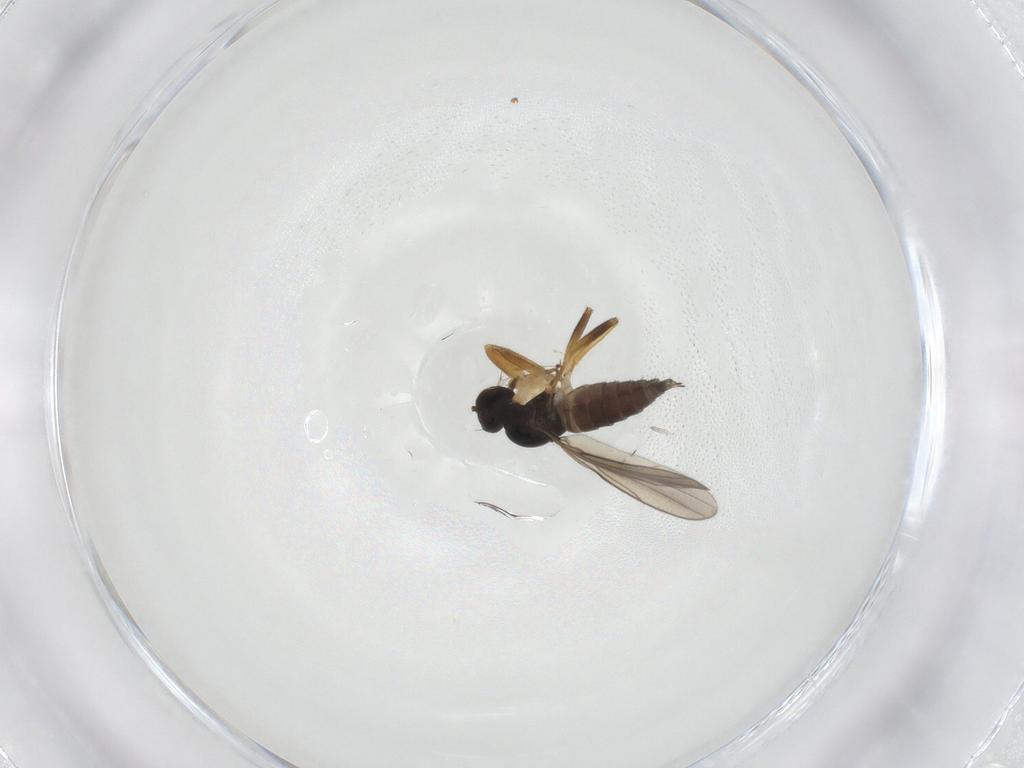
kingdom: Animalia
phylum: Arthropoda
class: Insecta
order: Diptera
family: Hybotidae
